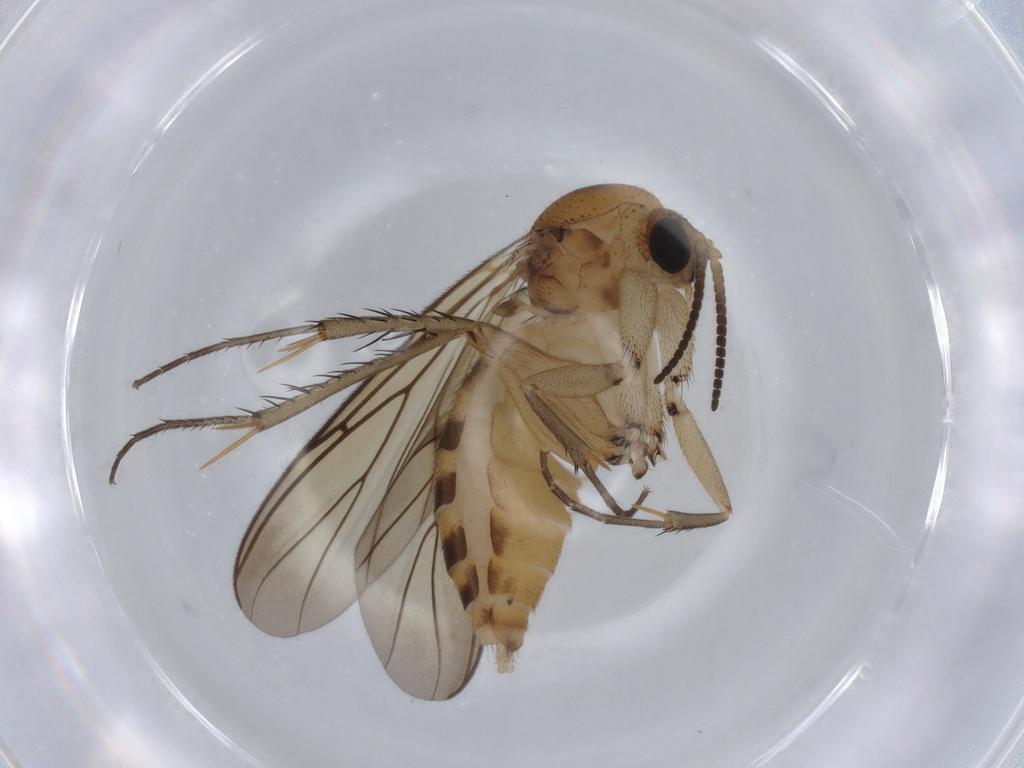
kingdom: Animalia
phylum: Arthropoda
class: Insecta
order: Diptera
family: Mycetophilidae
